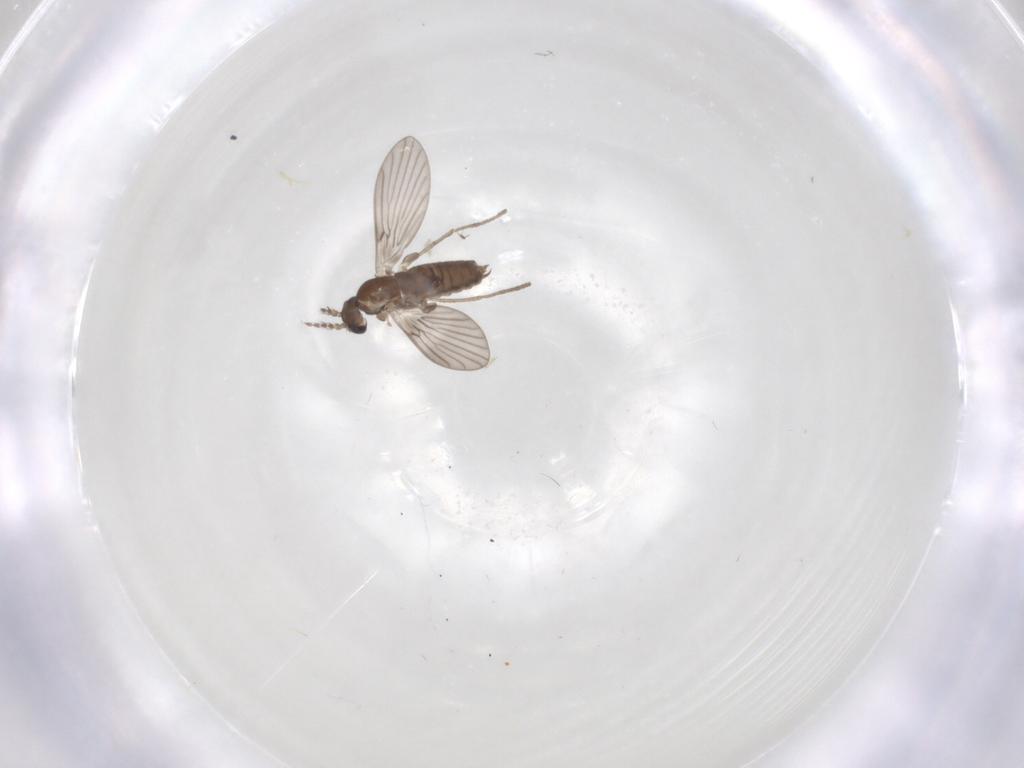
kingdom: Animalia
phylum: Arthropoda
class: Insecta
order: Diptera
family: Culicidae
